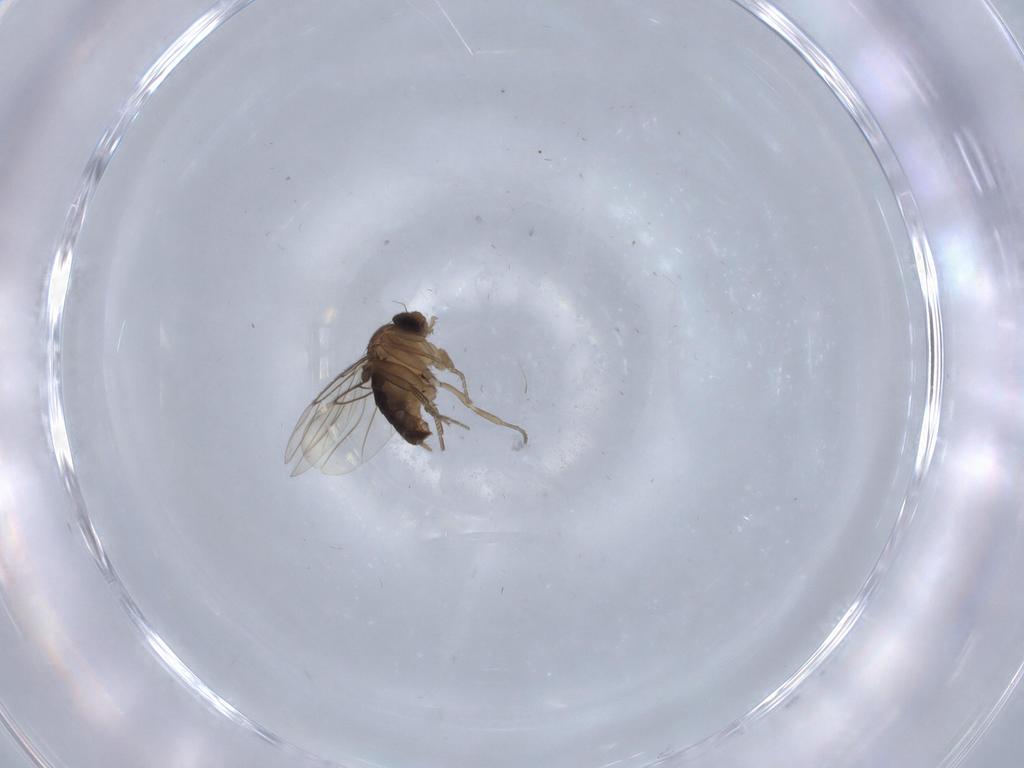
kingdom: Animalia
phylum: Arthropoda
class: Insecta
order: Diptera
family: Phoridae
